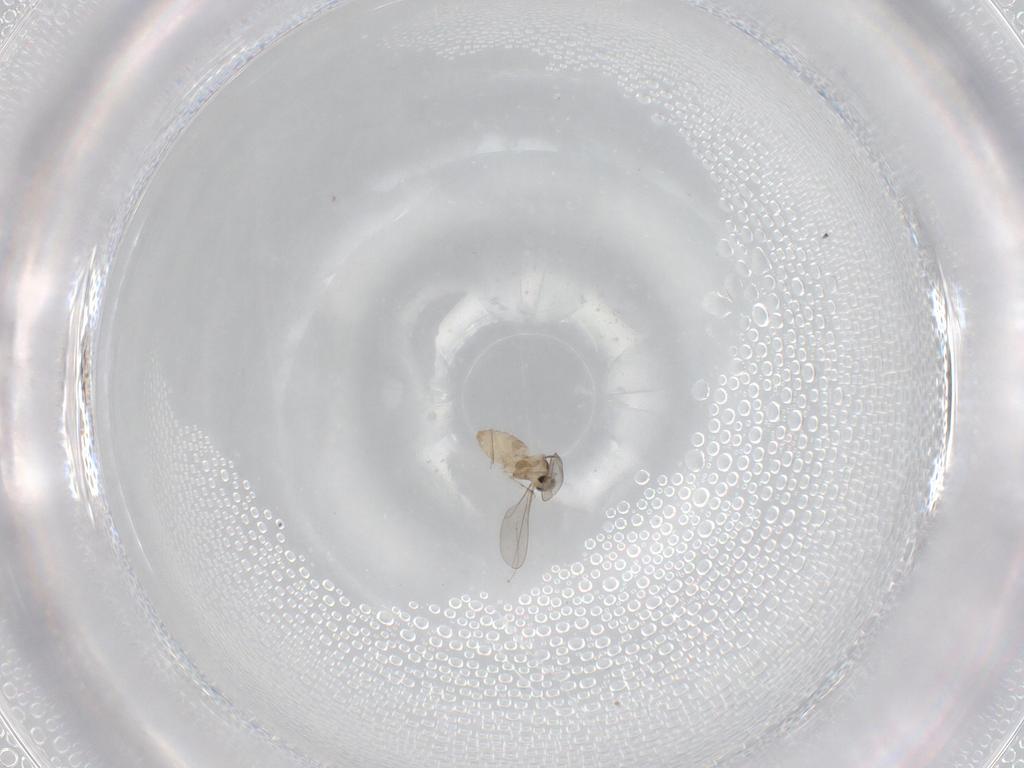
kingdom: Animalia
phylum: Arthropoda
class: Insecta
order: Diptera
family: Cecidomyiidae
